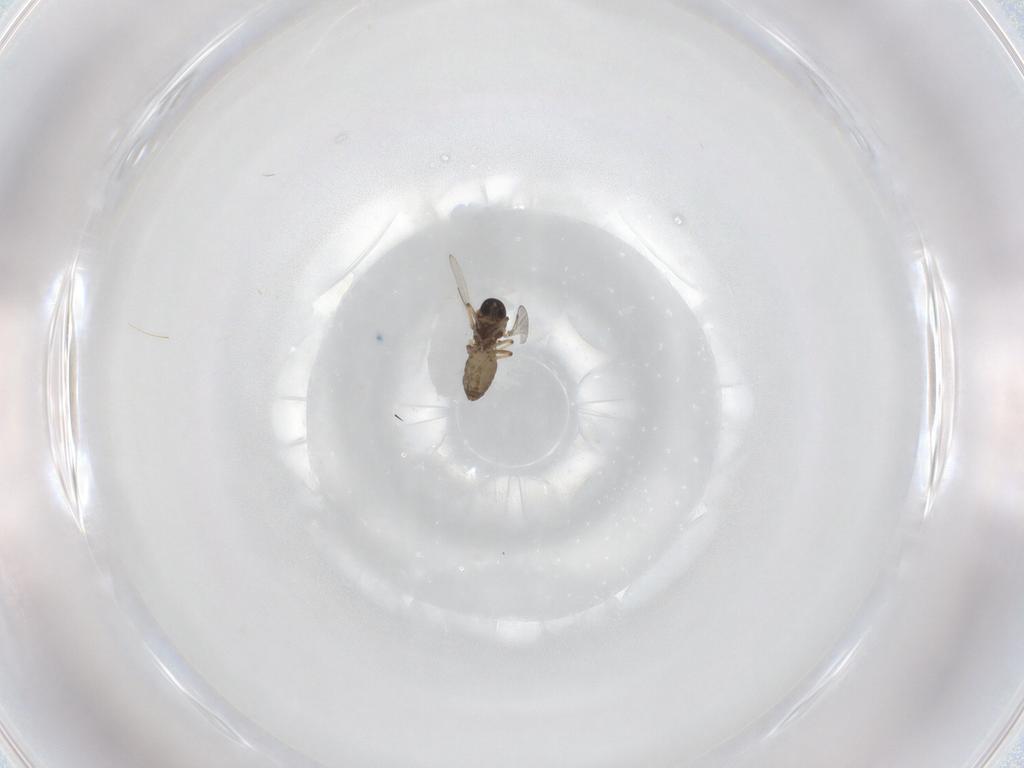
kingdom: Animalia
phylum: Arthropoda
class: Insecta
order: Diptera
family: Ceratopogonidae
